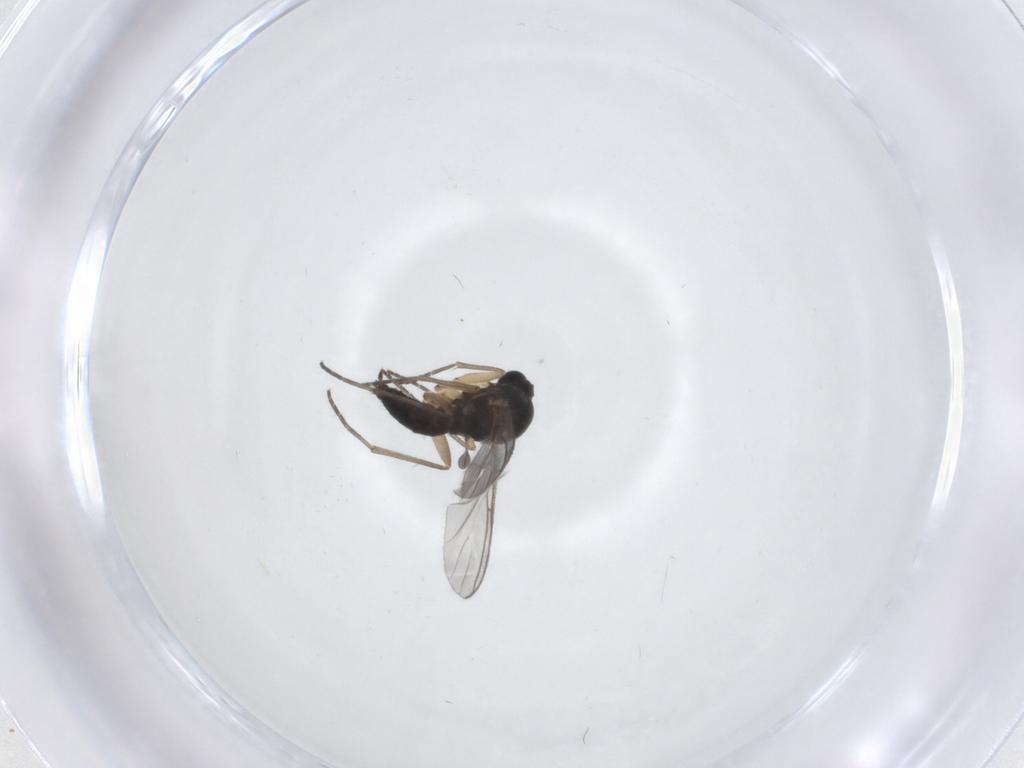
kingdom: Animalia
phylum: Arthropoda
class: Insecta
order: Diptera
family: Sciaridae
